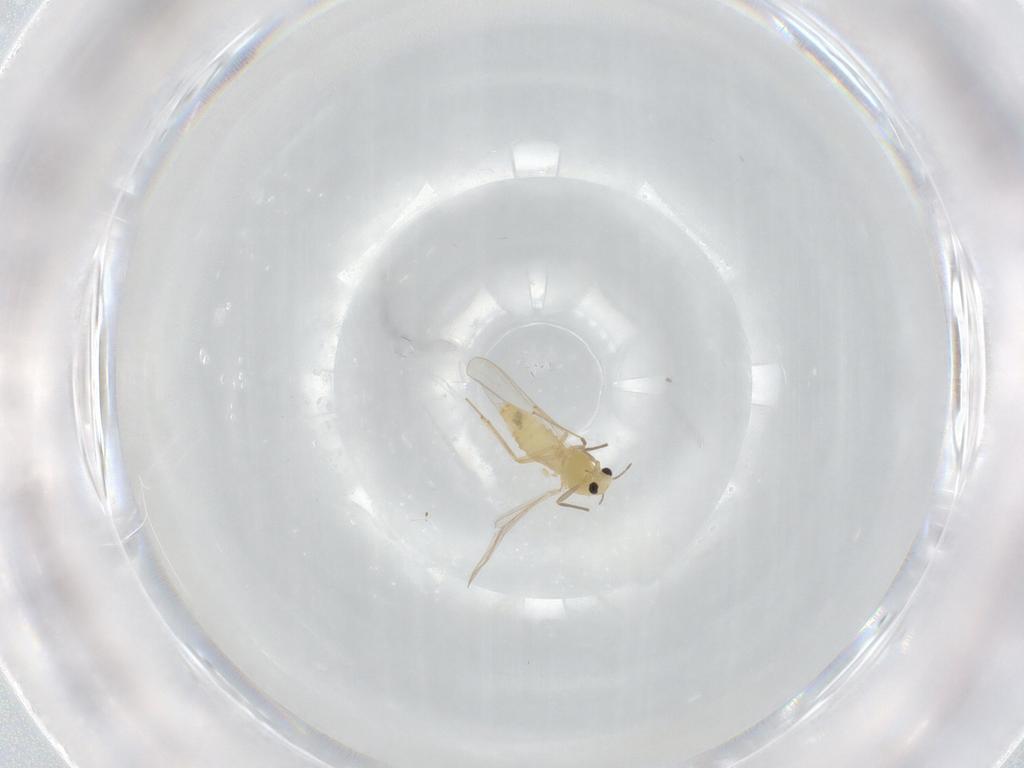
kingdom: Animalia
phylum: Arthropoda
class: Insecta
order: Diptera
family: Chironomidae
